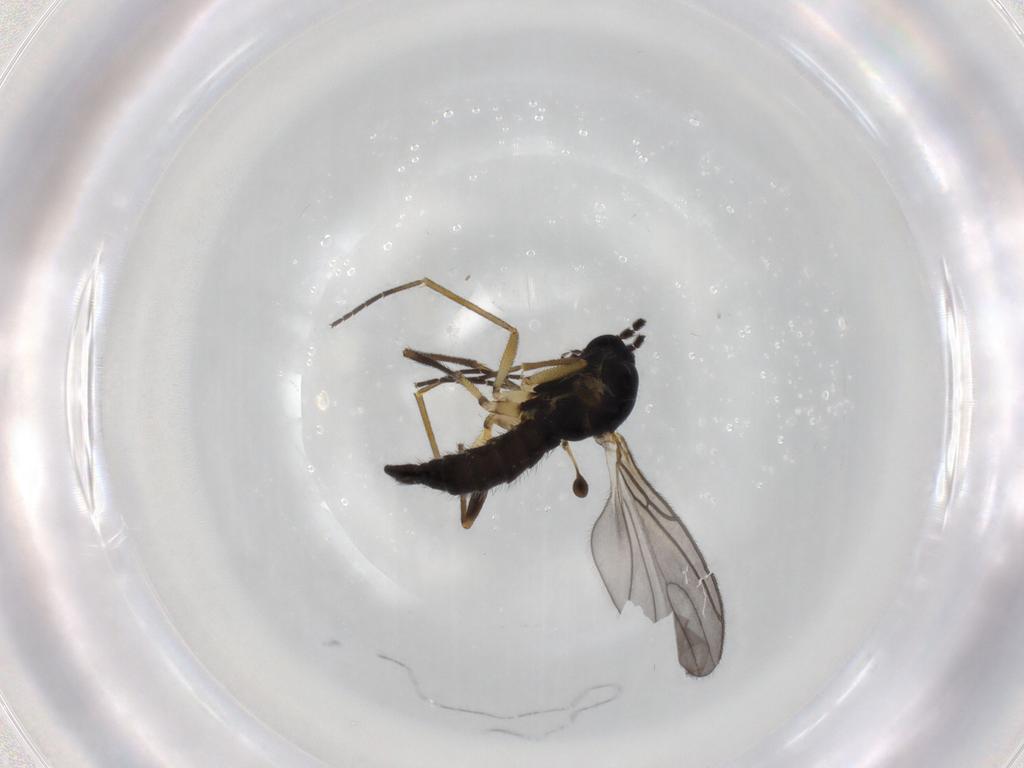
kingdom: Animalia
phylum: Arthropoda
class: Insecta
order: Diptera
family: Sciaridae
